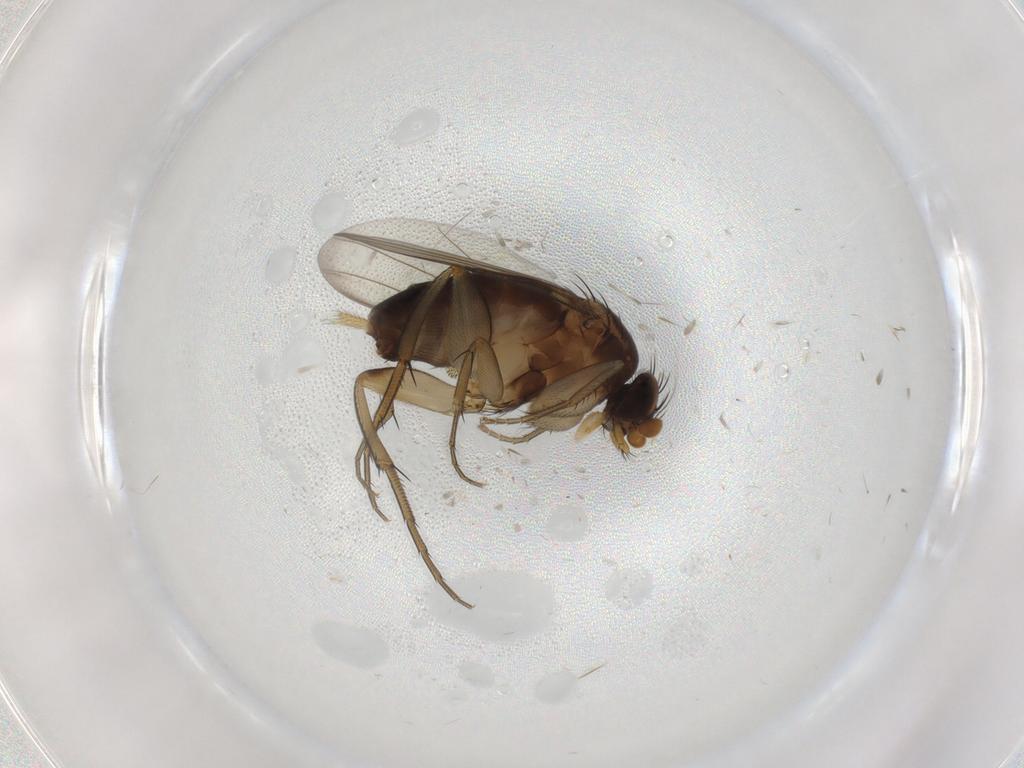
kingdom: Animalia
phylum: Arthropoda
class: Insecta
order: Diptera
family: Phoridae
